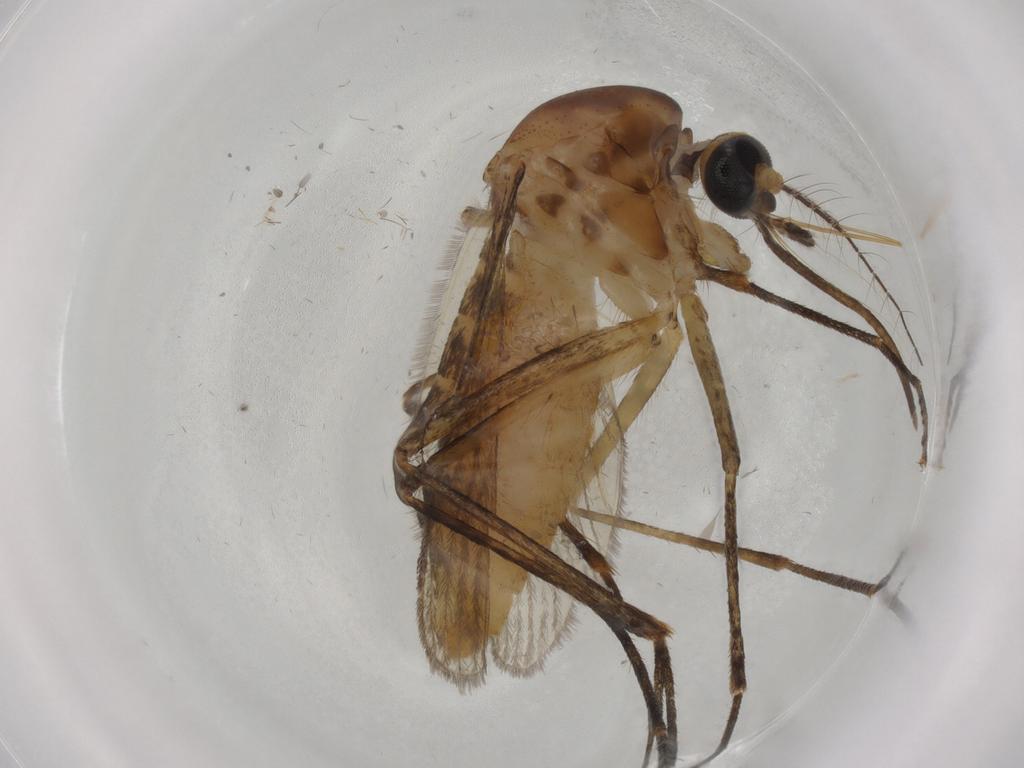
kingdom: Animalia
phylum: Arthropoda
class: Insecta
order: Diptera
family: Culicidae
